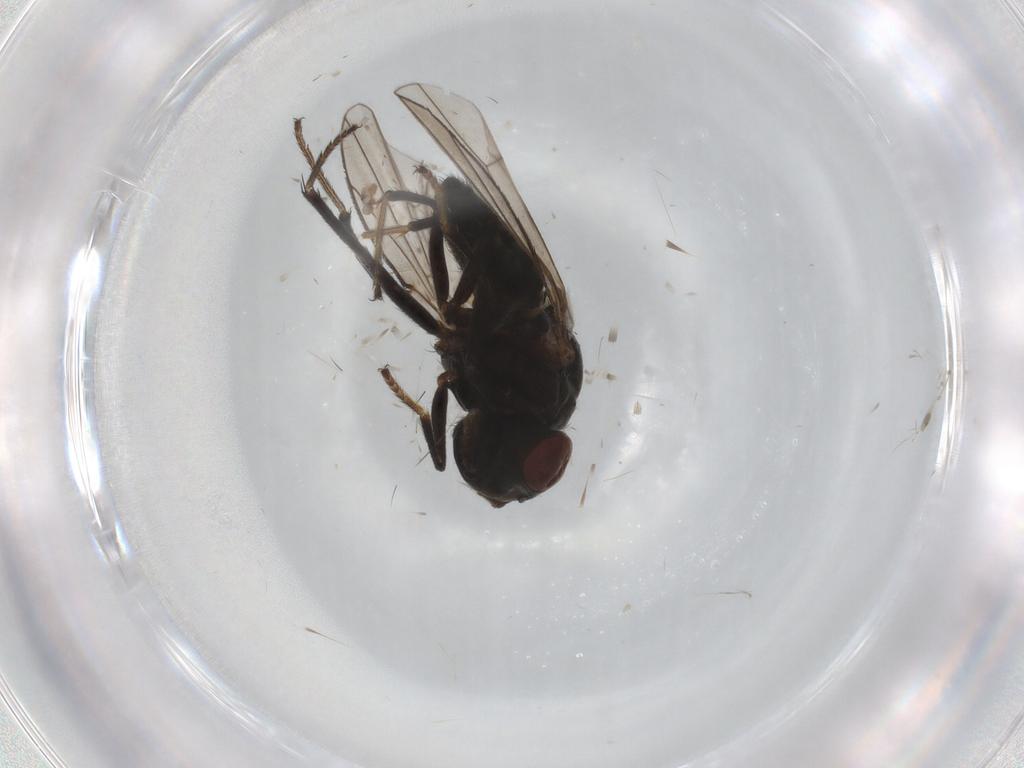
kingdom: Animalia
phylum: Arthropoda
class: Insecta
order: Diptera
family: Ephydridae
